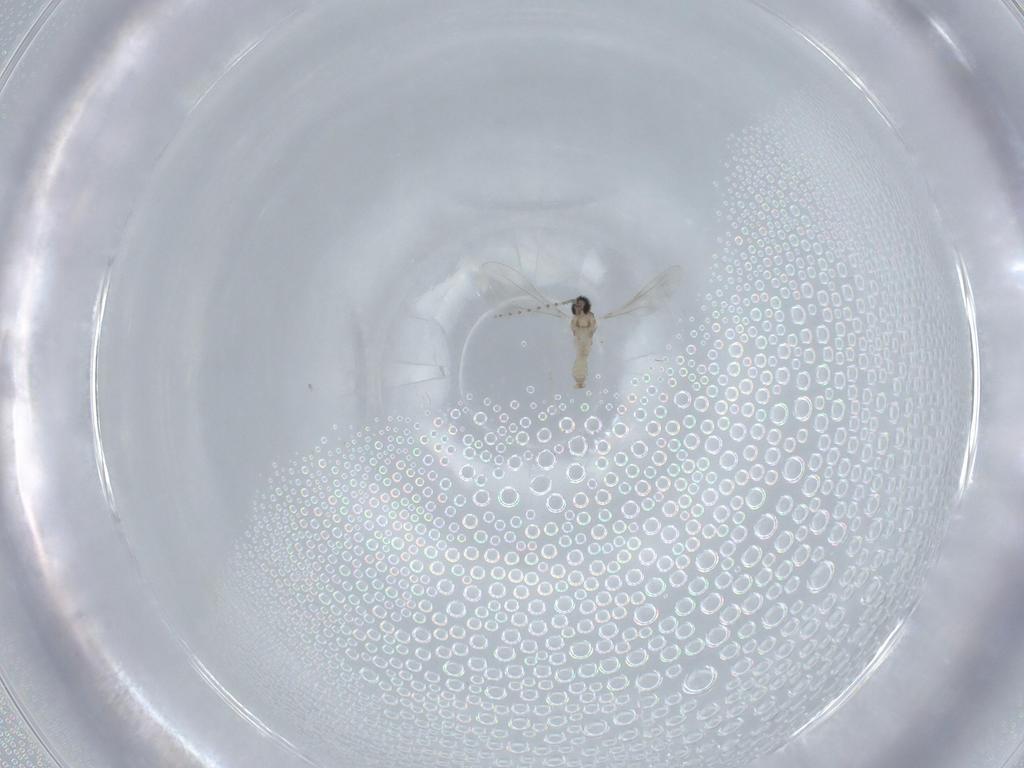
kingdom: Animalia
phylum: Arthropoda
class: Insecta
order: Diptera
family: Cecidomyiidae
